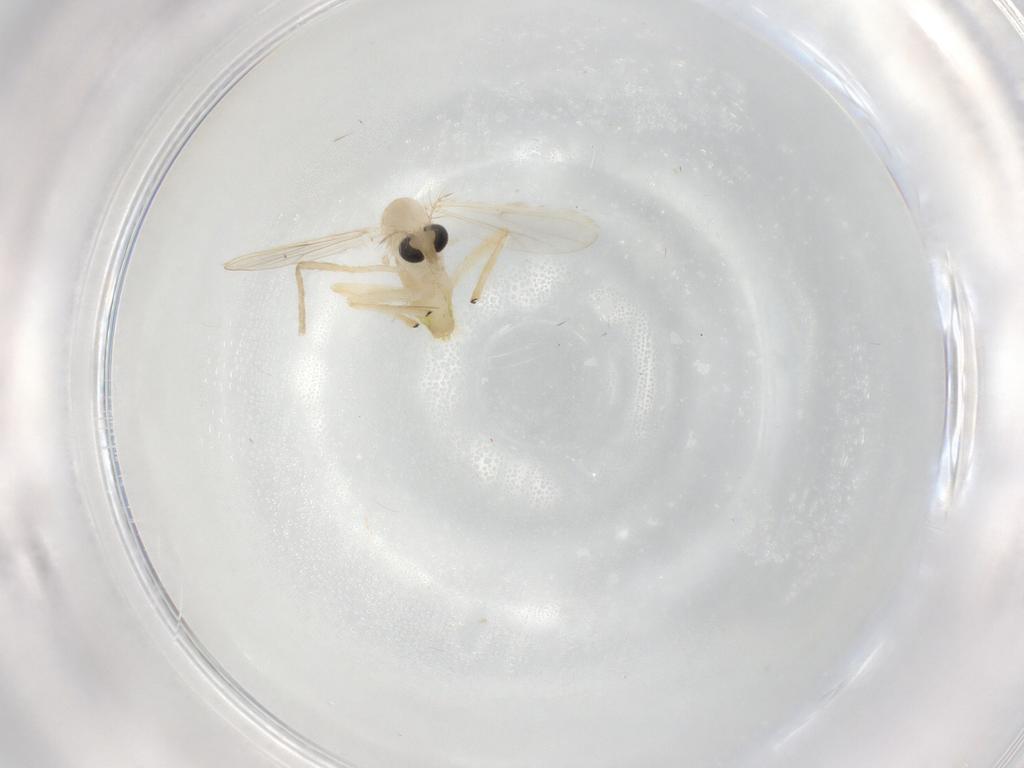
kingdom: Animalia
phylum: Arthropoda
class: Insecta
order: Diptera
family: Chironomidae
